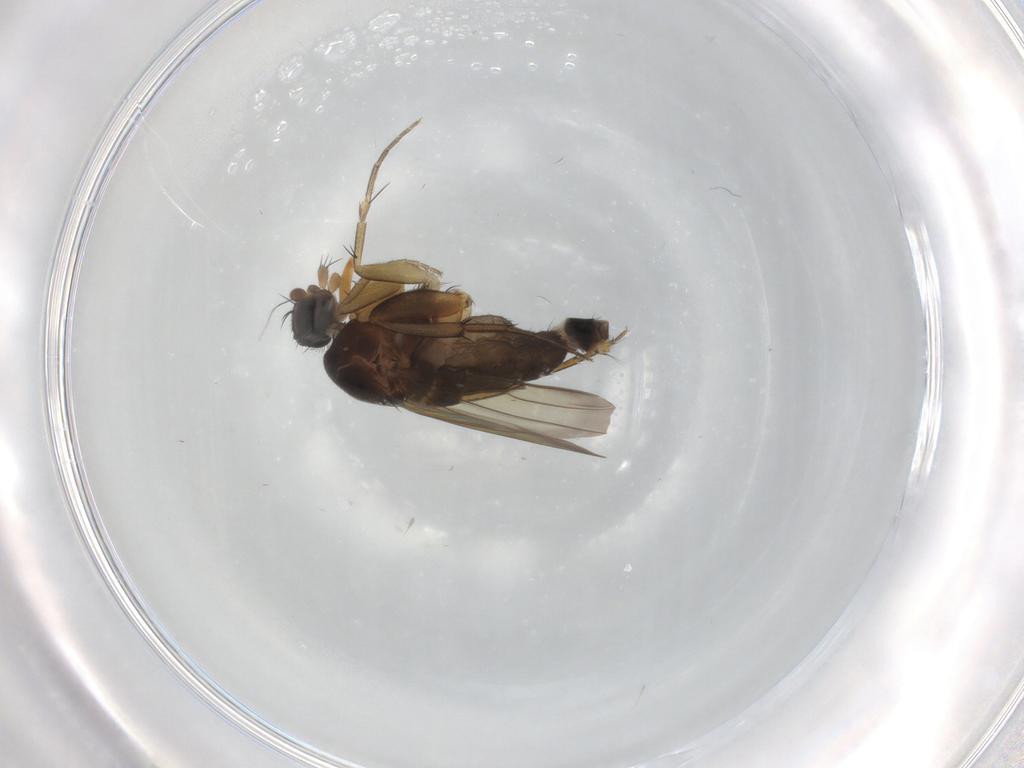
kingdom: Animalia
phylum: Arthropoda
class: Insecta
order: Diptera
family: Phoridae
